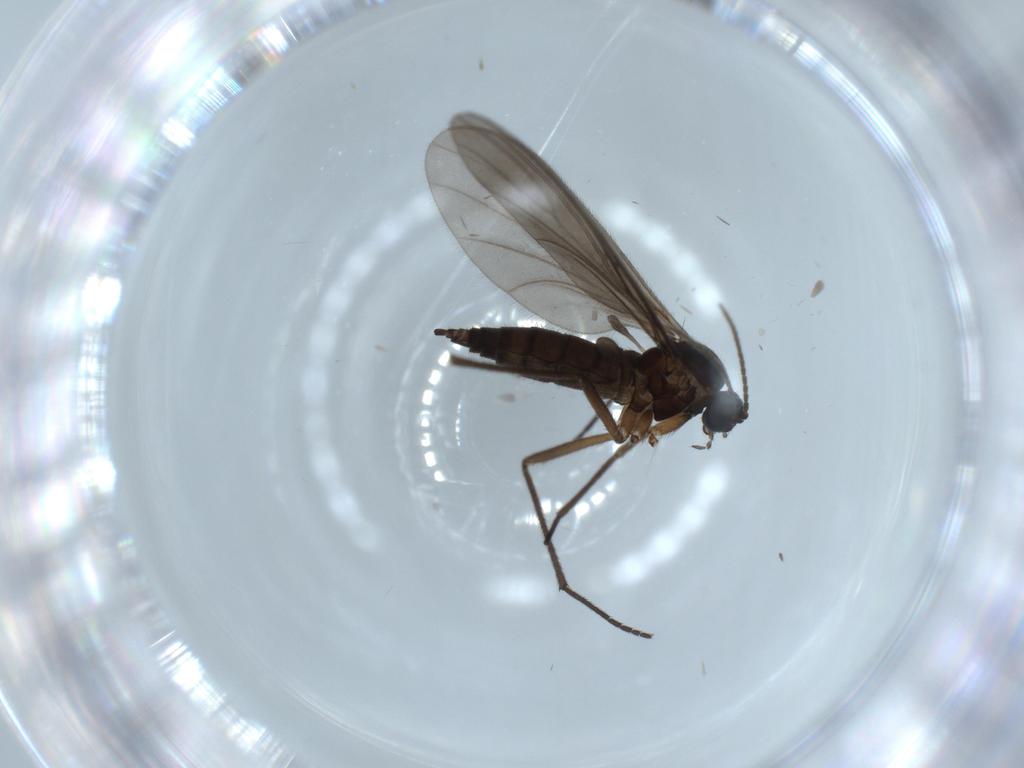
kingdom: Animalia
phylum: Arthropoda
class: Insecta
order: Diptera
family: Sciaridae
